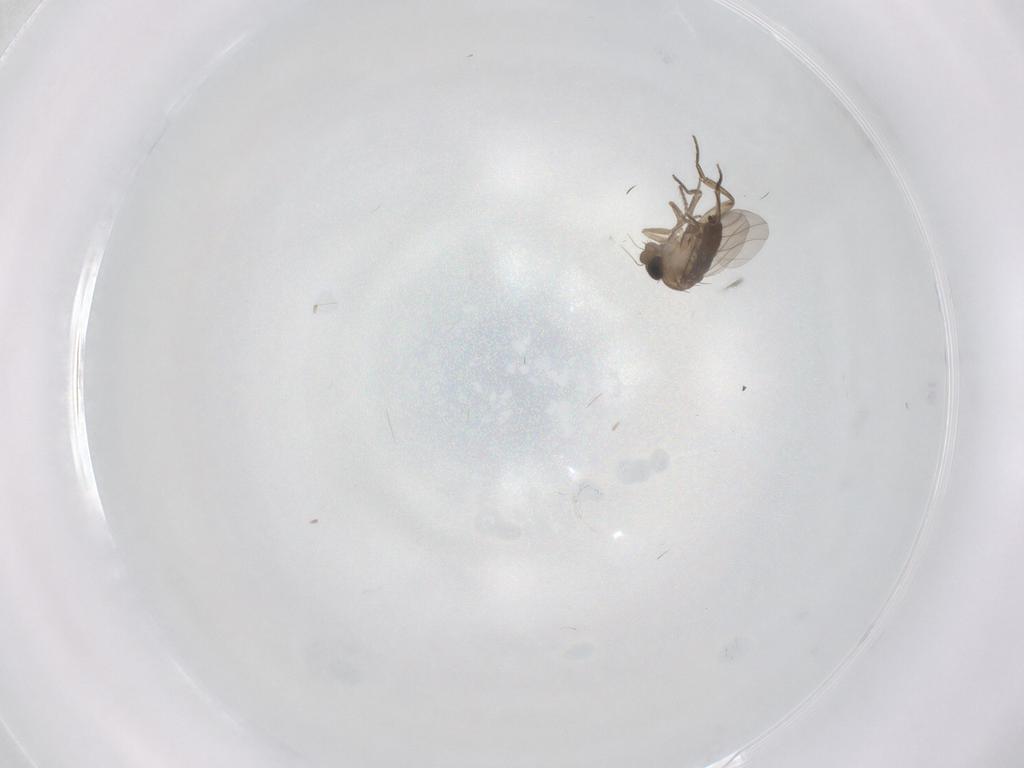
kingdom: Animalia
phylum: Arthropoda
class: Insecta
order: Diptera
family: Phoridae
